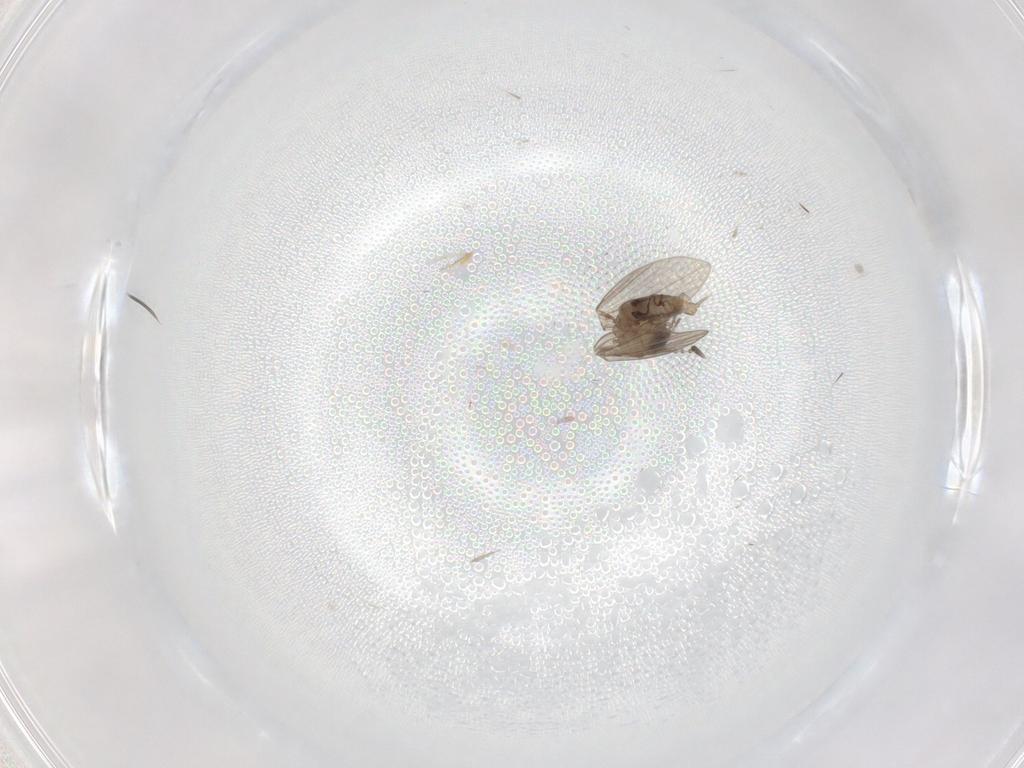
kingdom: Animalia
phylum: Arthropoda
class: Insecta
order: Diptera
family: Psychodidae
